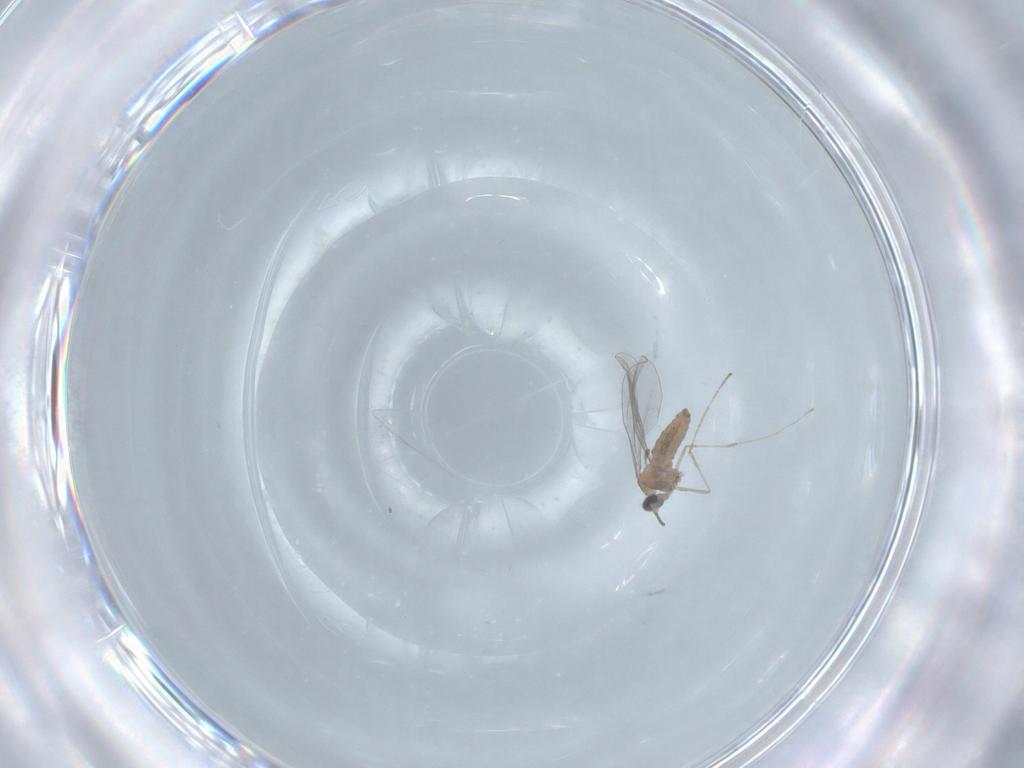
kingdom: Animalia
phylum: Arthropoda
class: Insecta
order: Diptera
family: Cecidomyiidae
